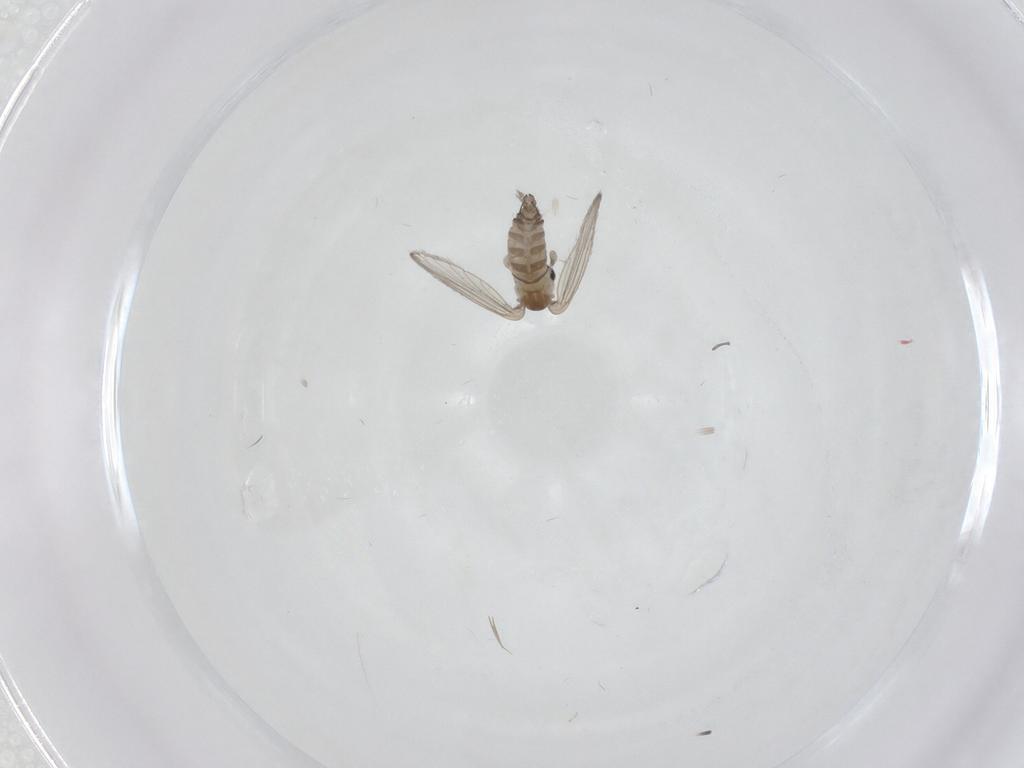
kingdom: Animalia
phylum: Arthropoda
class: Insecta
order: Diptera
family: Psychodidae
